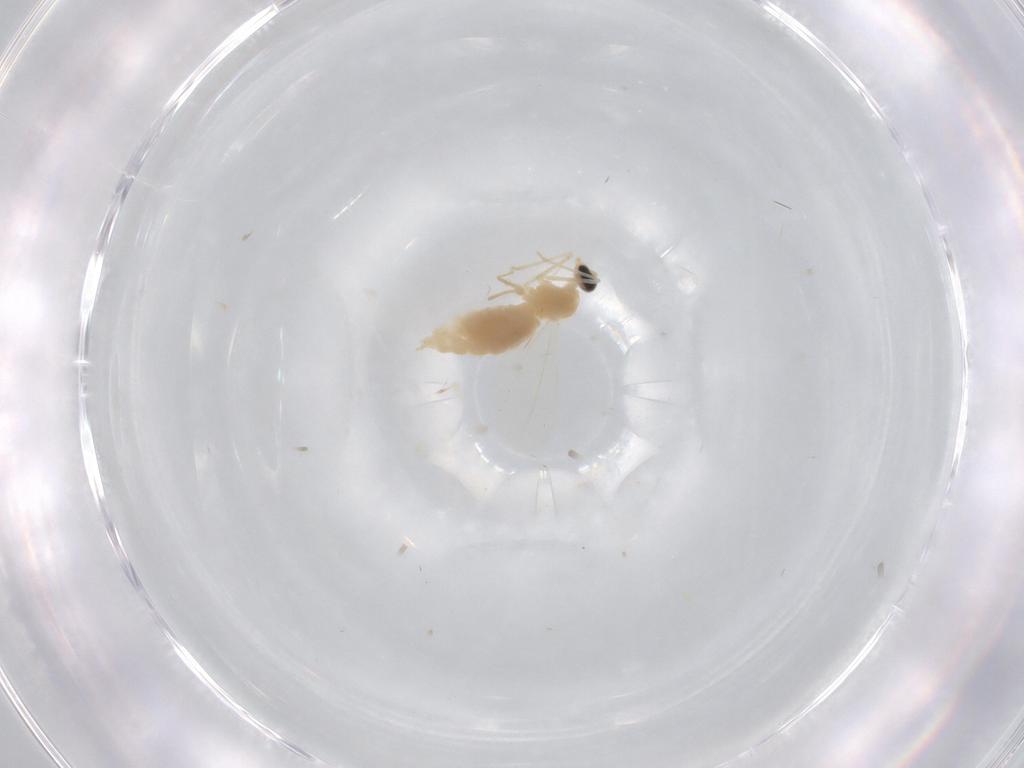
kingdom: Animalia
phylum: Arthropoda
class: Insecta
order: Diptera
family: Cecidomyiidae
